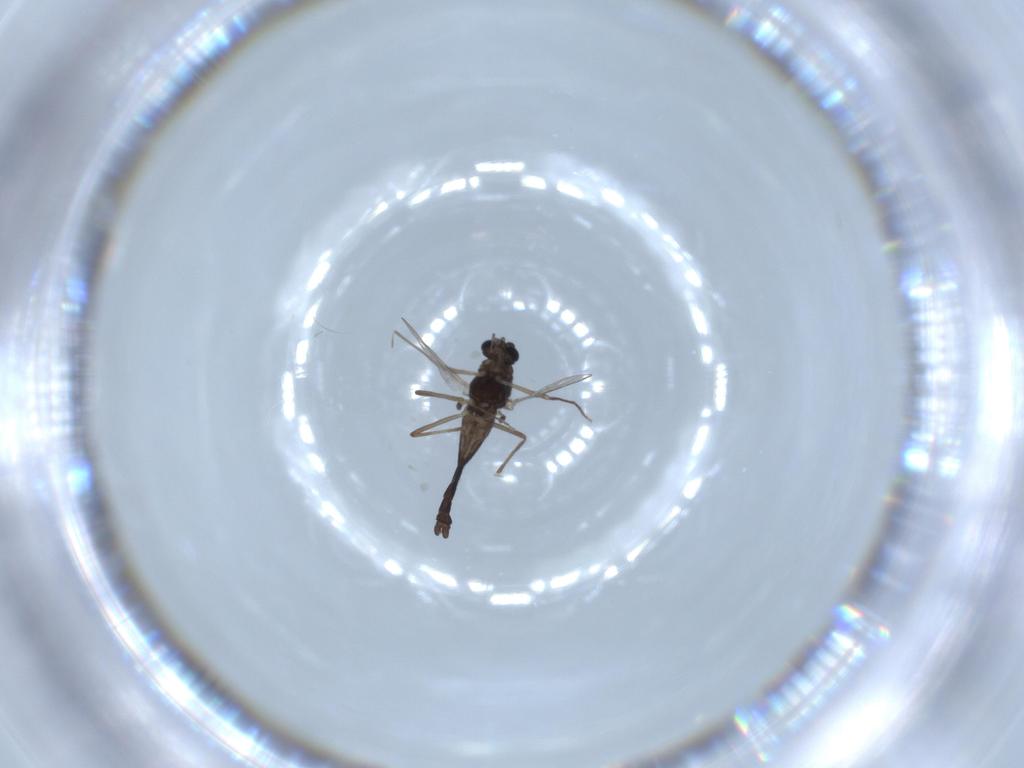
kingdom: Animalia
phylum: Arthropoda
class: Insecta
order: Diptera
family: Chironomidae
